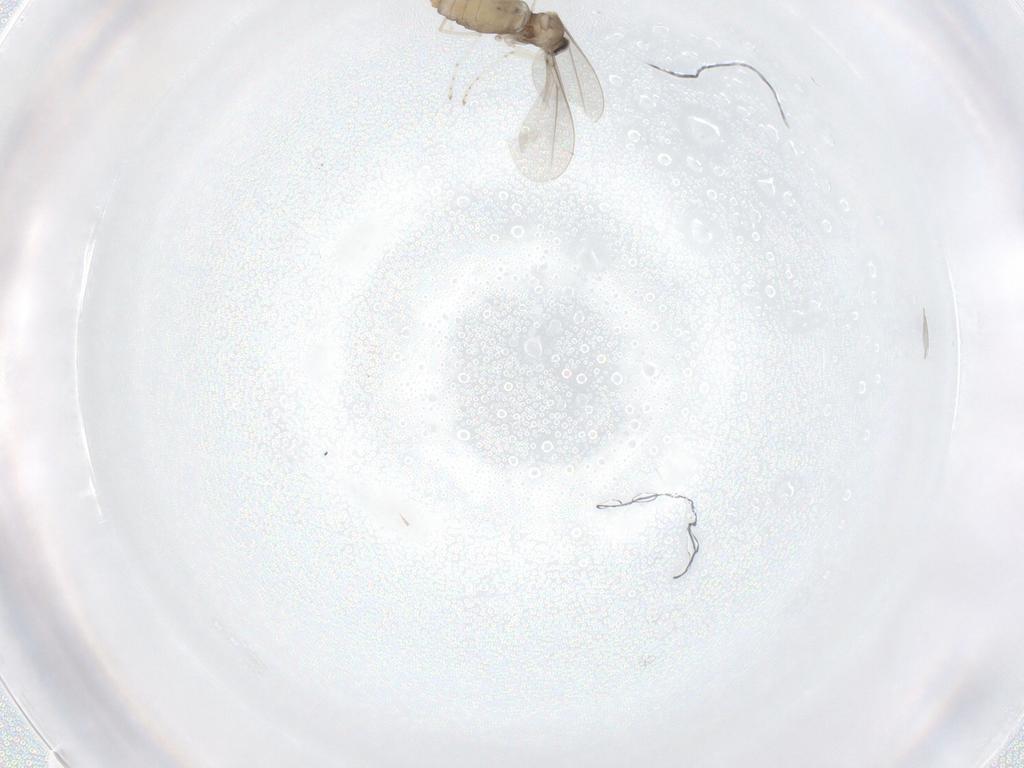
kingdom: Animalia
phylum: Arthropoda
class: Insecta
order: Diptera
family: Cecidomyiidae
